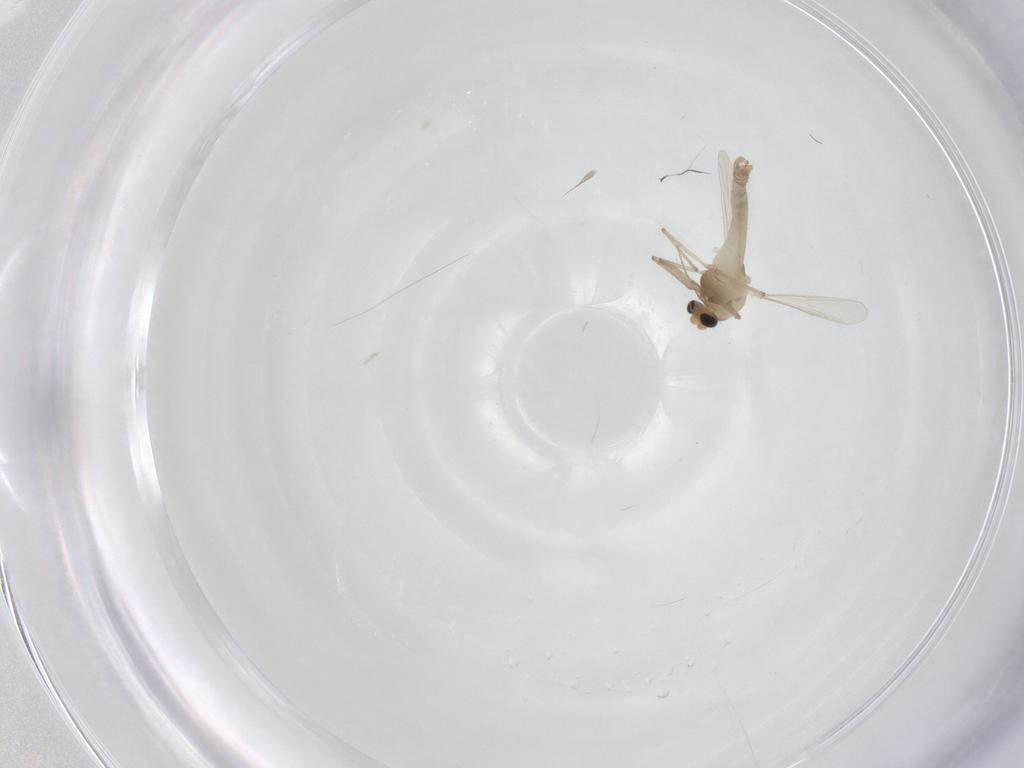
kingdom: Animalia
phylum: Arthropoda
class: Insecta
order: Diptera
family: Chironomidae
